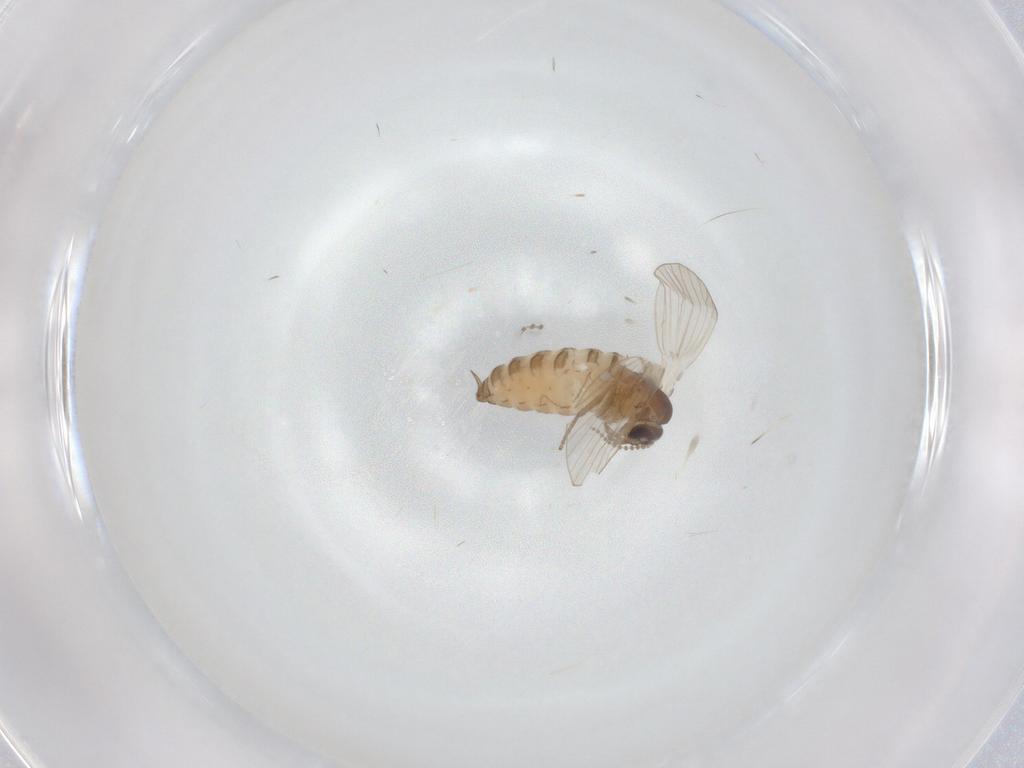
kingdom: Animalia
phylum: Arthropoda
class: Insecta
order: Diptera
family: Psychodidae
